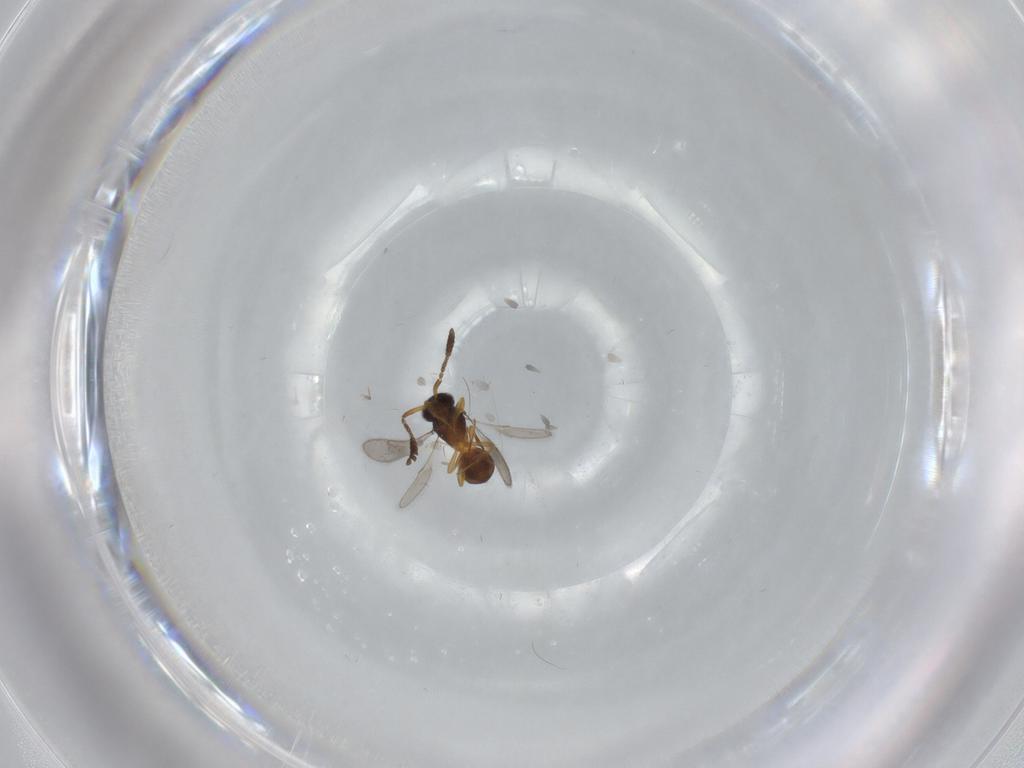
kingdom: Animalia
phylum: Arthropoda
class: Insecta
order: Hymenoptera
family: Scelionidae
